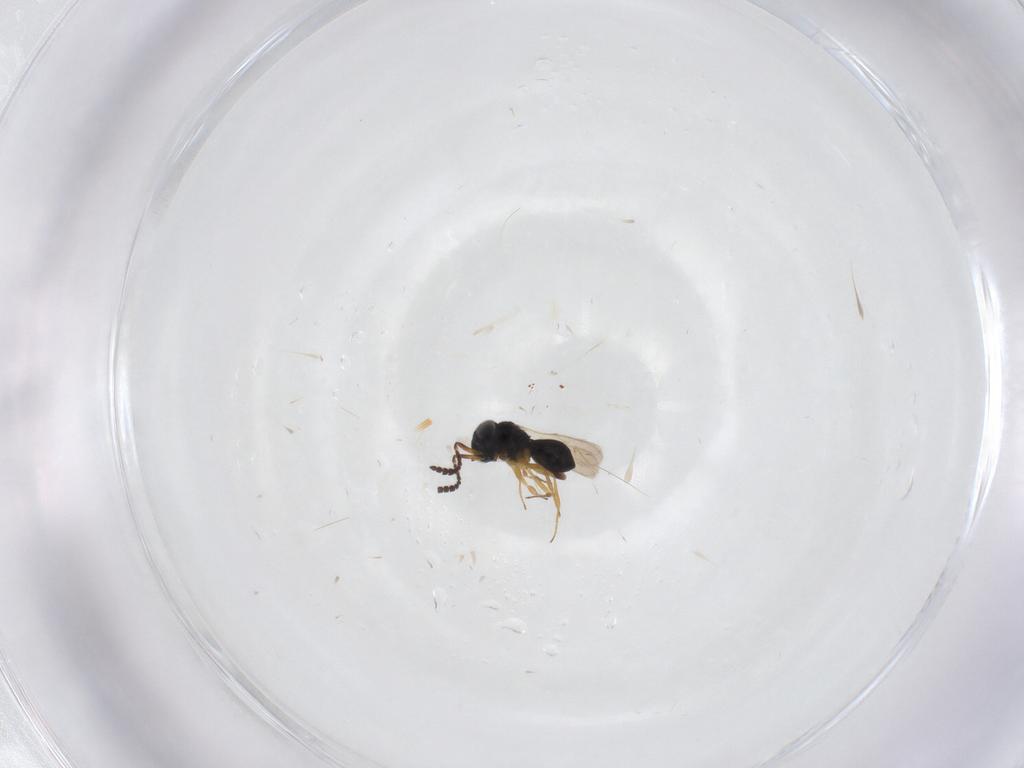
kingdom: Animalia
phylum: Arthropoda
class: Insecta
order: Hymenoptera
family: Scelionidae
